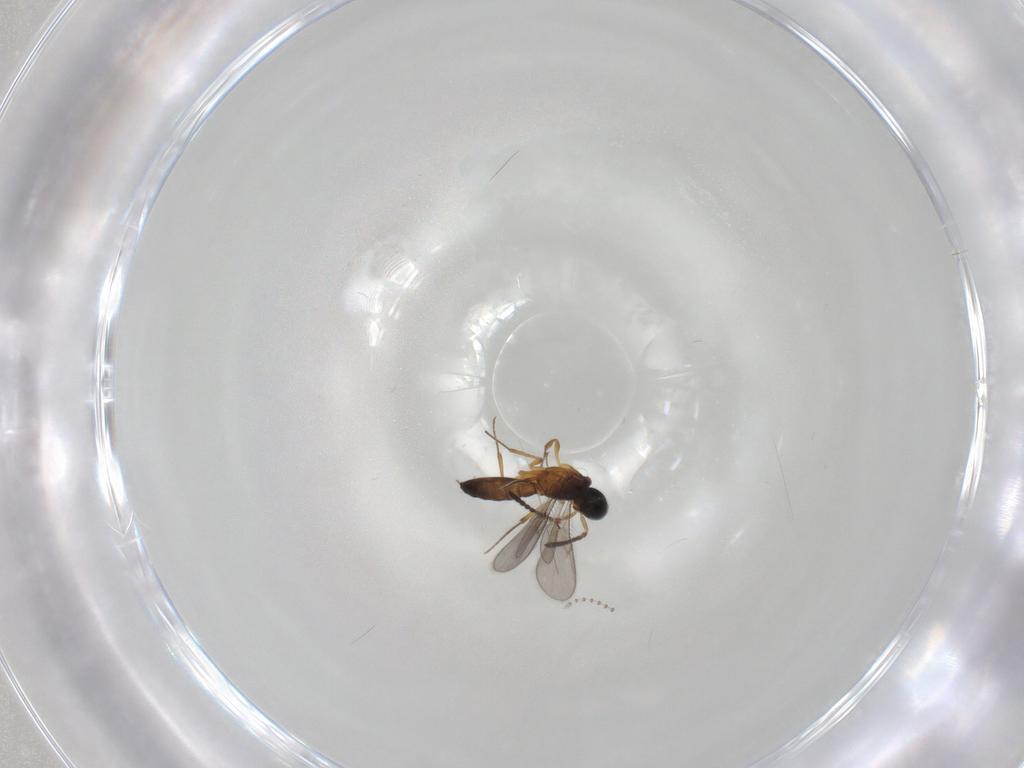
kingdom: Animalia
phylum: Arthropoda
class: Insecta
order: Hymenoptera
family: Scelionidae
